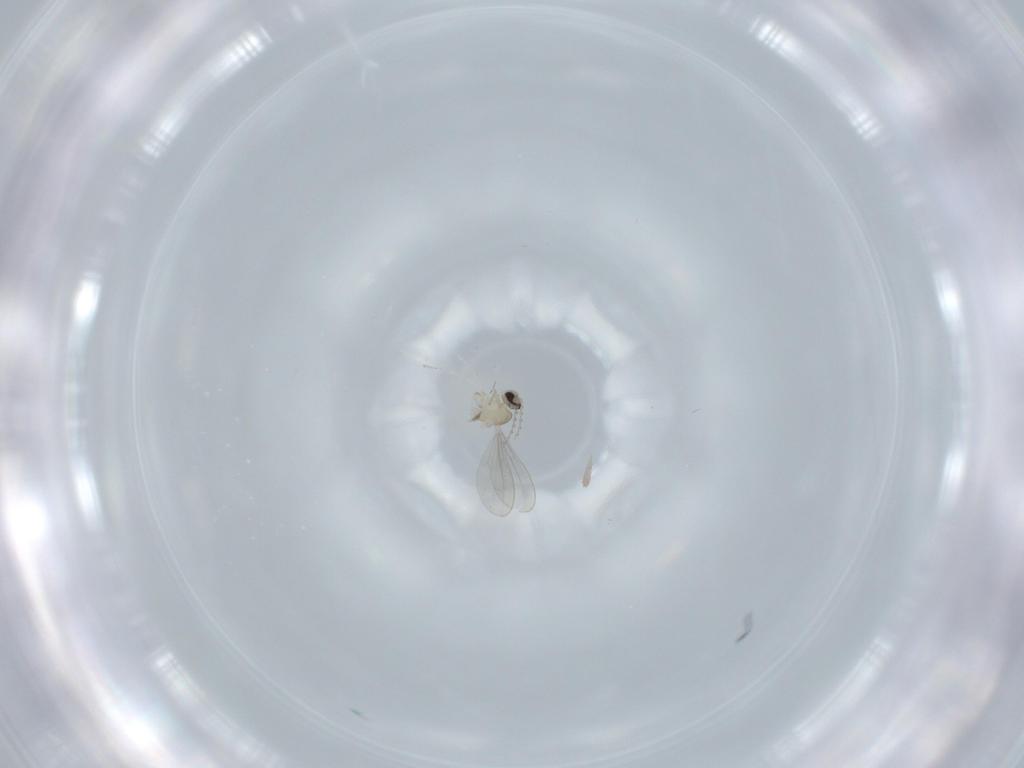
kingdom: Animalia
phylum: Arthropoda
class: Insecta
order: Diptera
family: Cecidomyiidae
